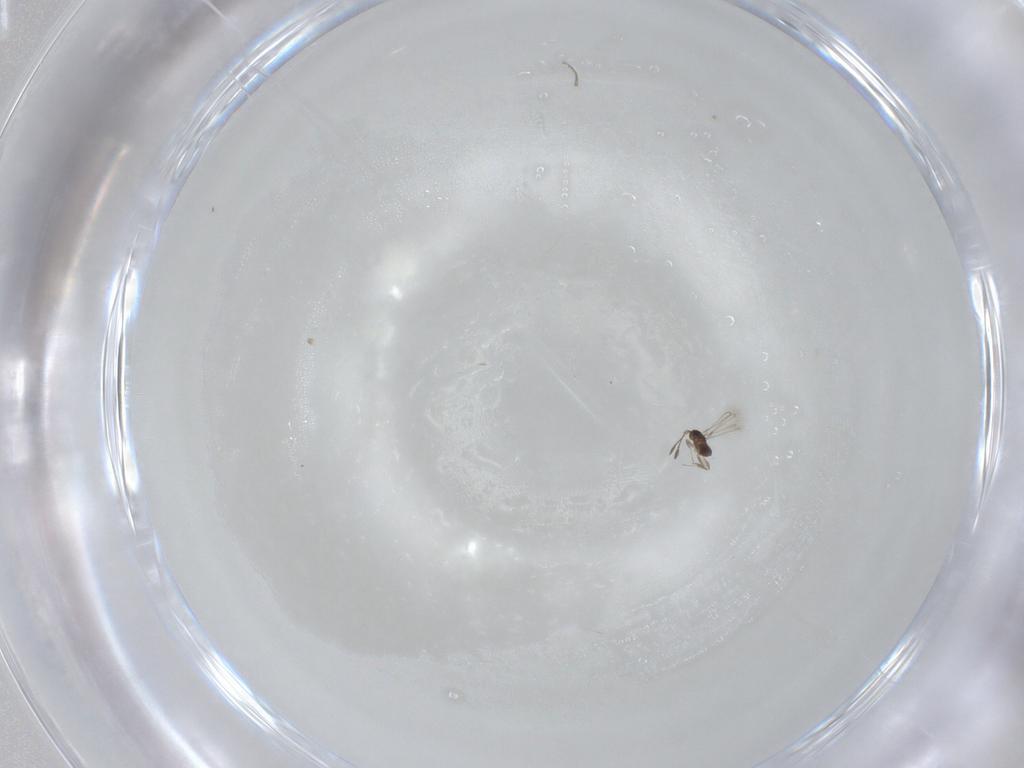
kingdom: Animalia
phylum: Arthropoda
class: Insecta
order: Hymenoptera
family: Mymaridae
